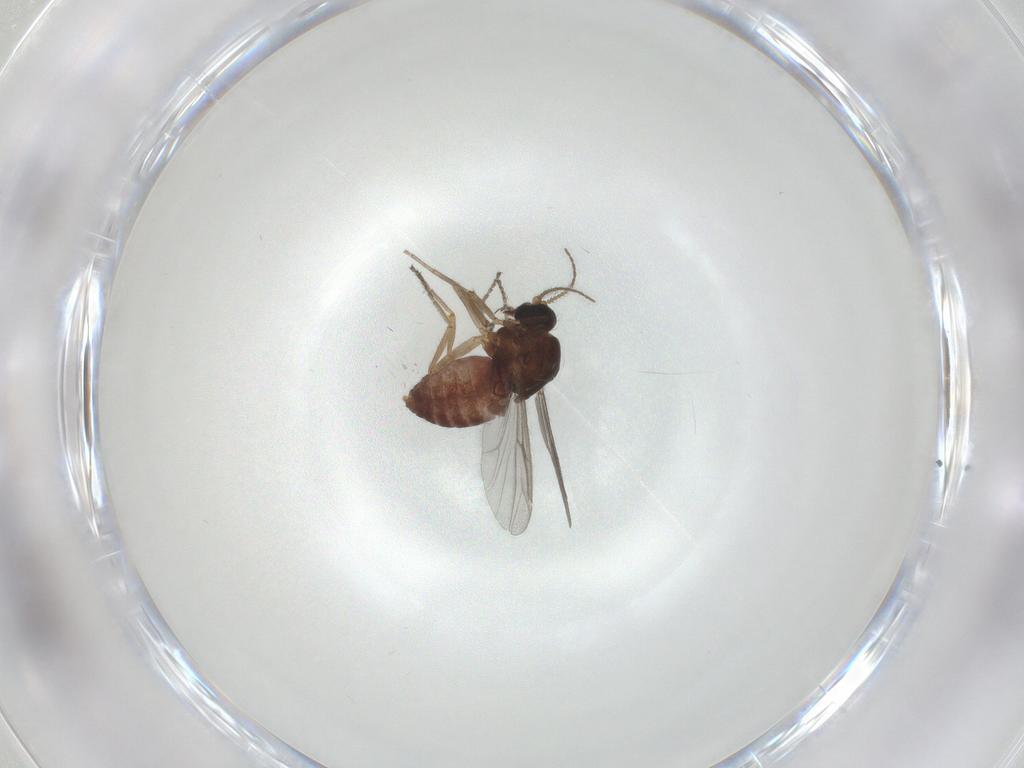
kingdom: Animalia
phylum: Arthropoda
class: Insecta
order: Diptera
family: Ceratopogonidae
